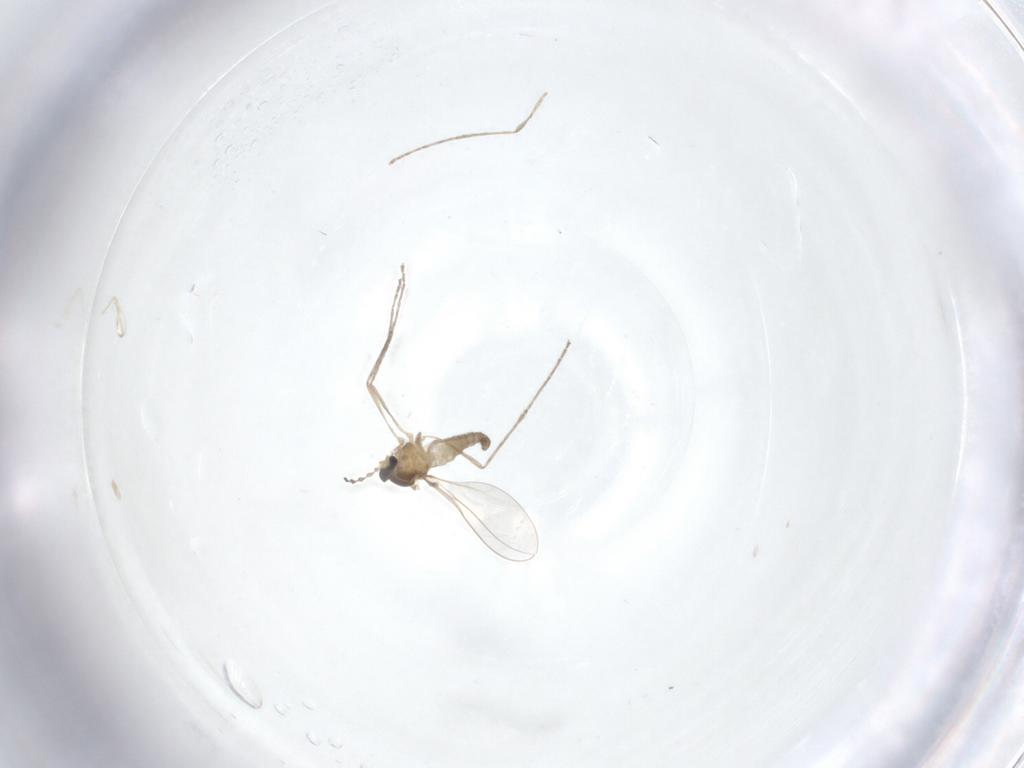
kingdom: Animalia
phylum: Arthropoda
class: Insecta
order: Diptera
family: Cecidomyiidae
